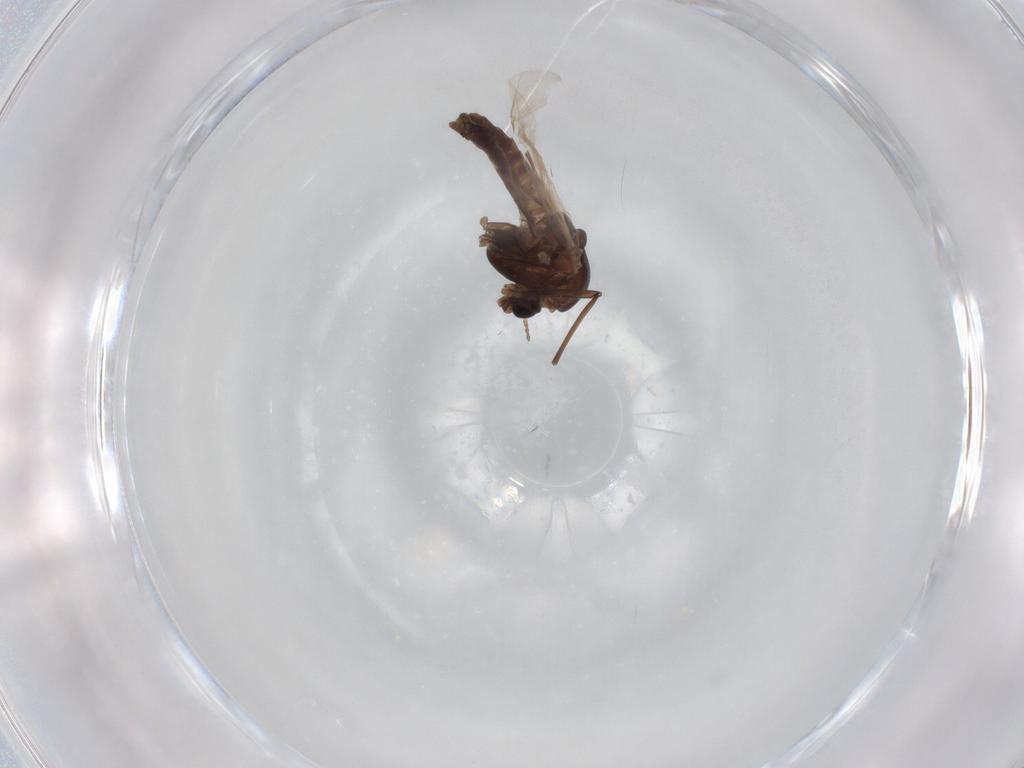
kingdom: Animalia
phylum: Arthropoda
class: Insecta
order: Diptera
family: Chironomidae
